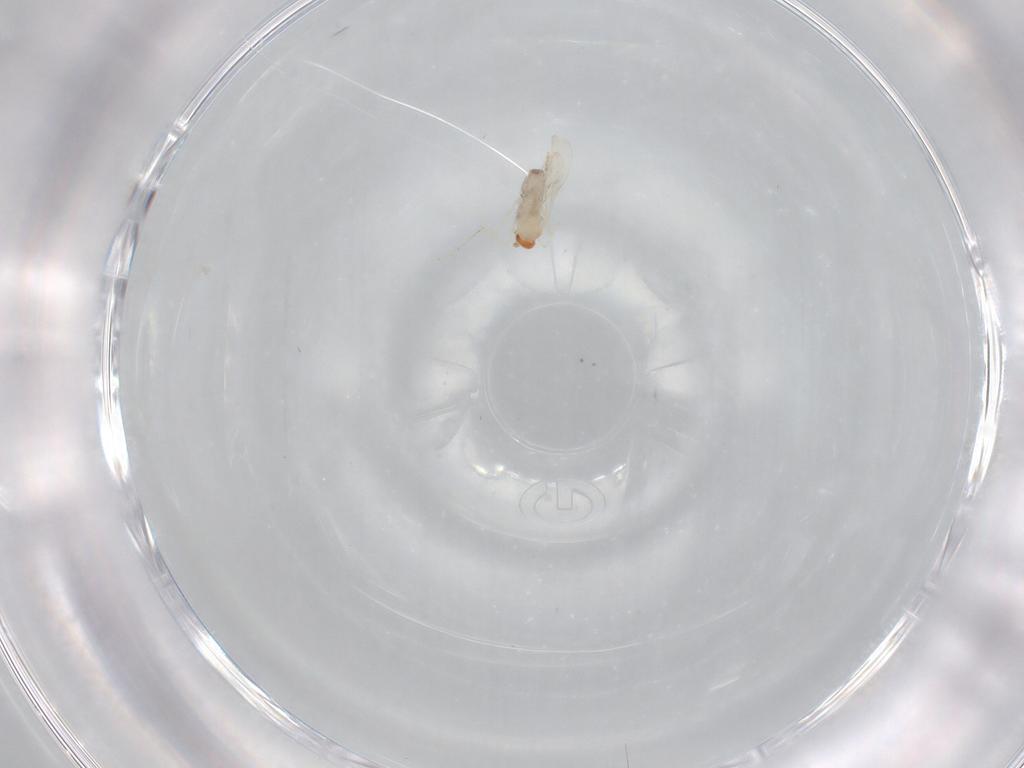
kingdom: Animalia
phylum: Arthropoda
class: Insecta
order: Diptera
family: Cecidomyiidae
